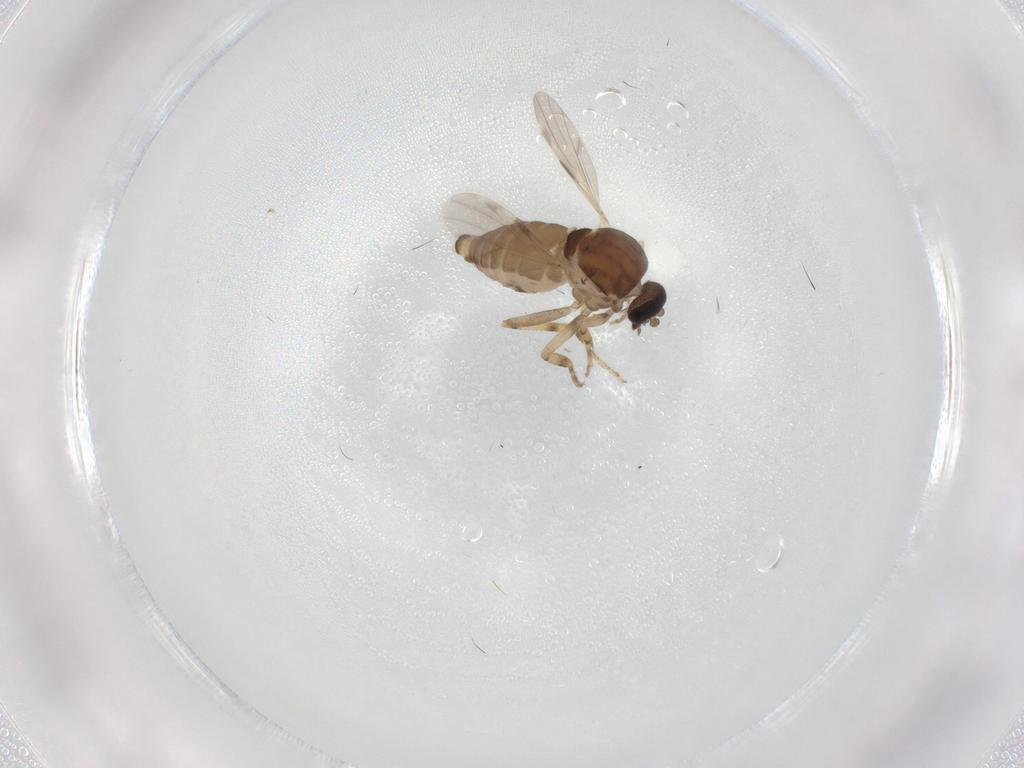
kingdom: Animalia
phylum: Arthropoda
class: Insecta
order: Diptera
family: Ceratopogonidae
